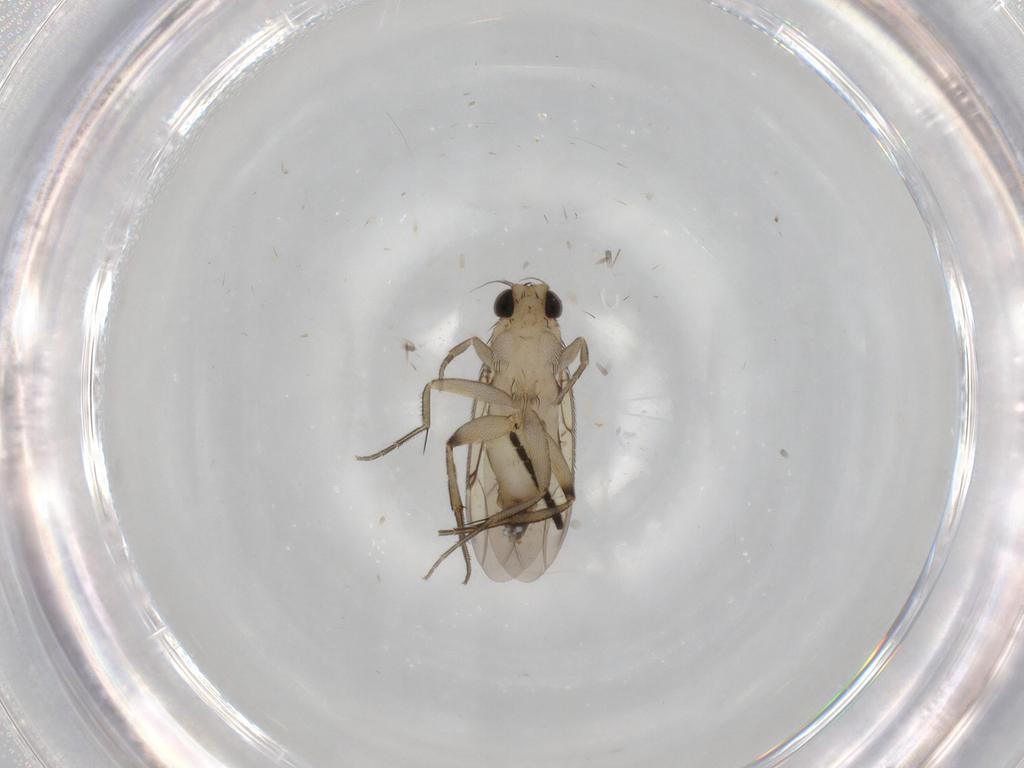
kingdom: Animalia
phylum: Arthropoda
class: Insecta
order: Diptera
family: Phoridae
